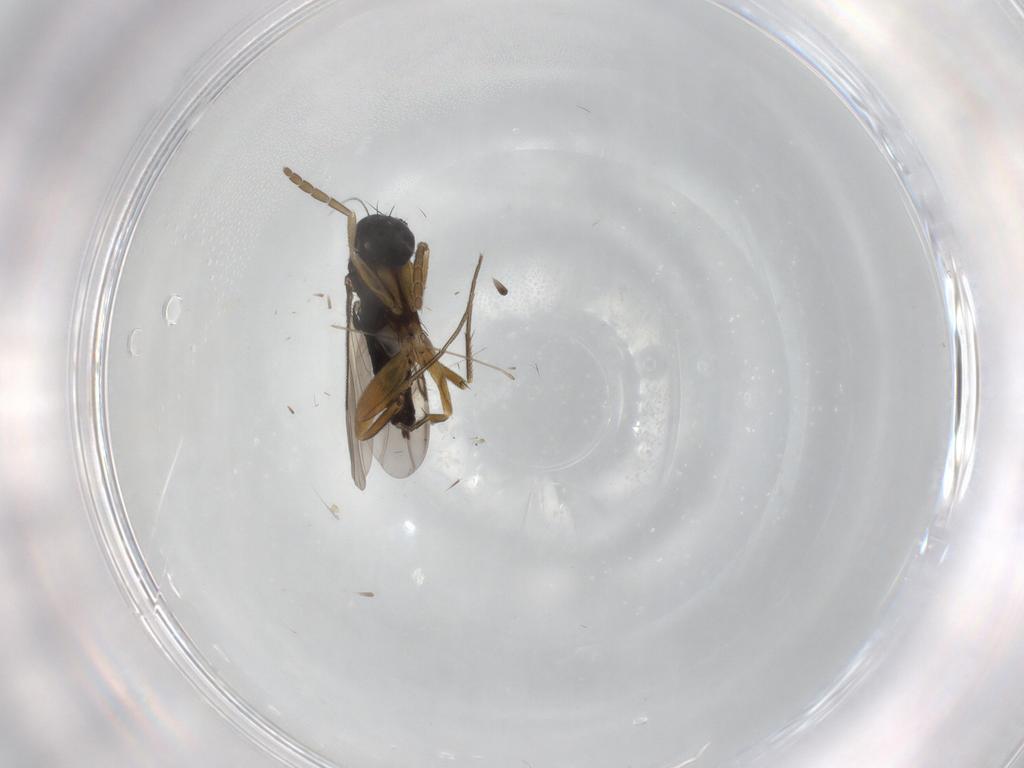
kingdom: Animalia
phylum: Arthropoda
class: Insecta
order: Diptera
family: Cecidomyiidae
